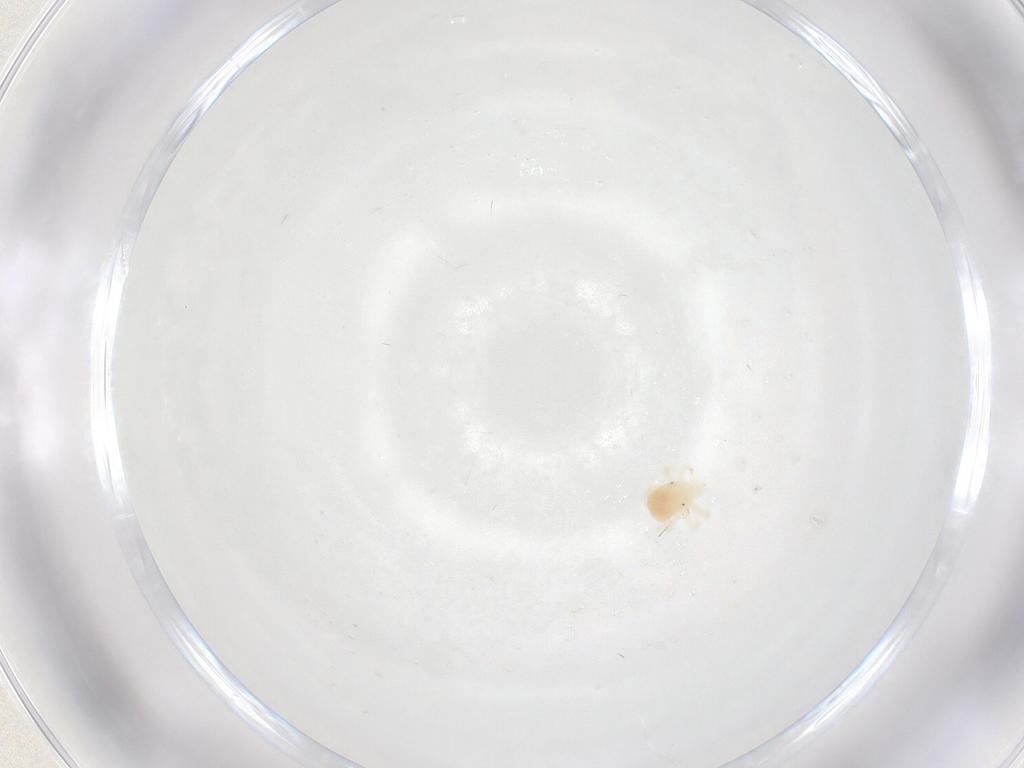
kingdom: Animalia
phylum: Arthropoda
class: Arachnida
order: Trombidiformes
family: Anystidae
